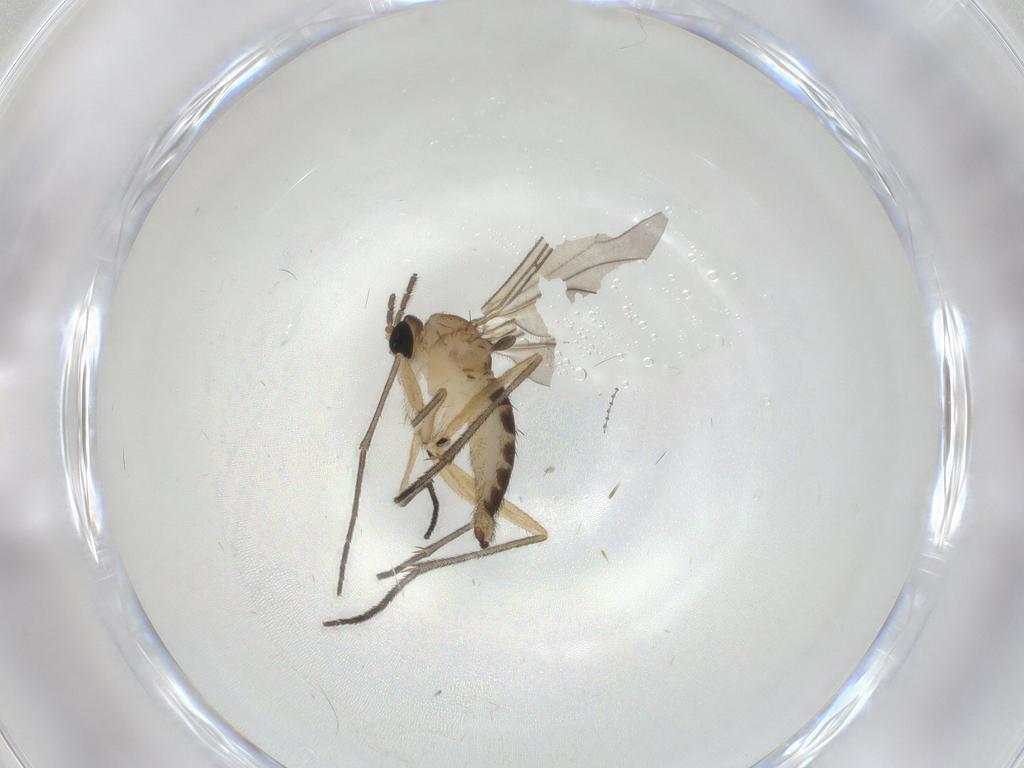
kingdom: Animalia
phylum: Arthropoda
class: Insecta
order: Diptera
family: Sciaridae
